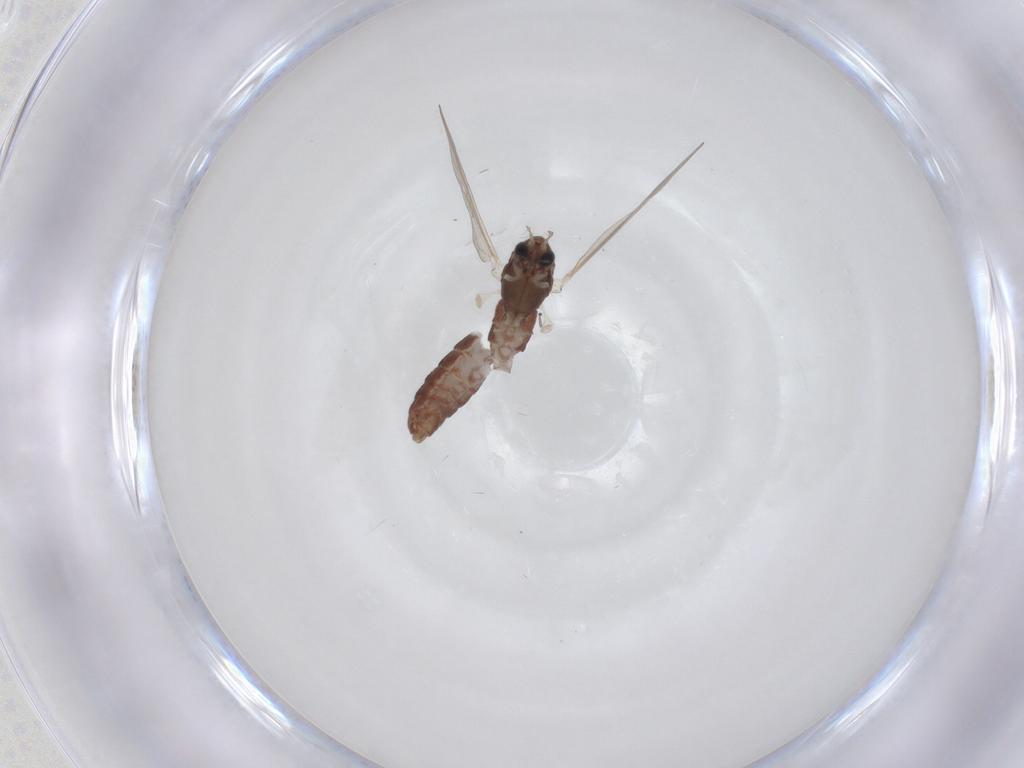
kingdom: Animalia
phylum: Arthropoda
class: Insecta
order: Diptera
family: Chironomidae
